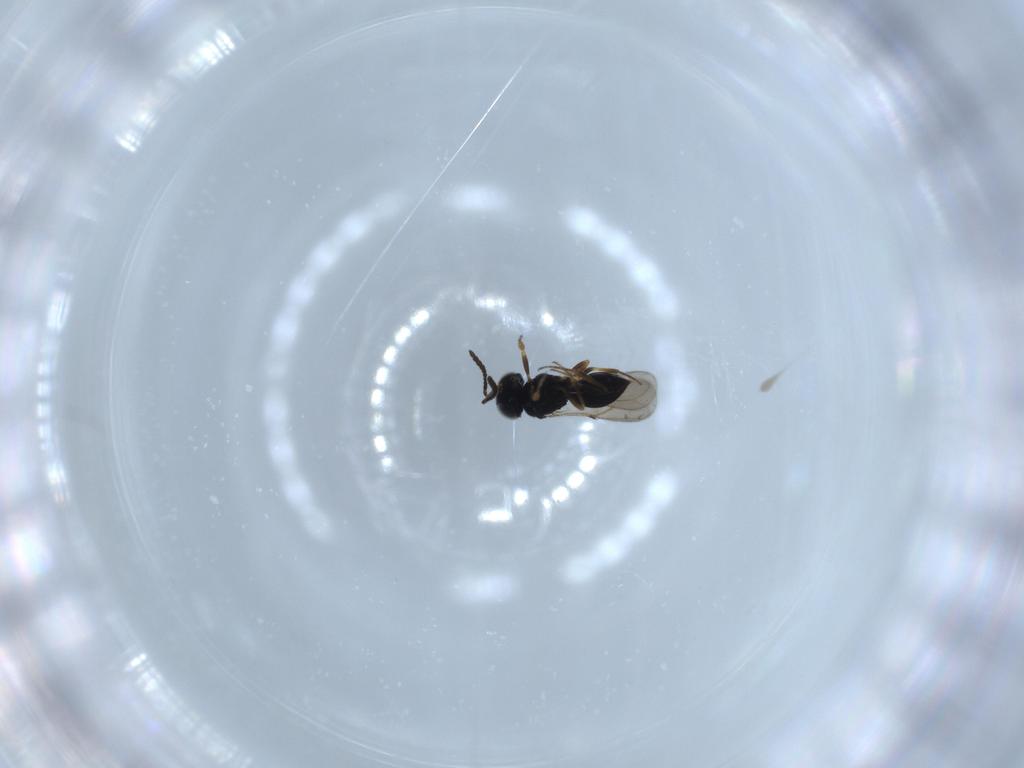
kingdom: Animalia
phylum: Arthropoda
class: Insecta
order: Hymenoptera
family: Scelionidae
